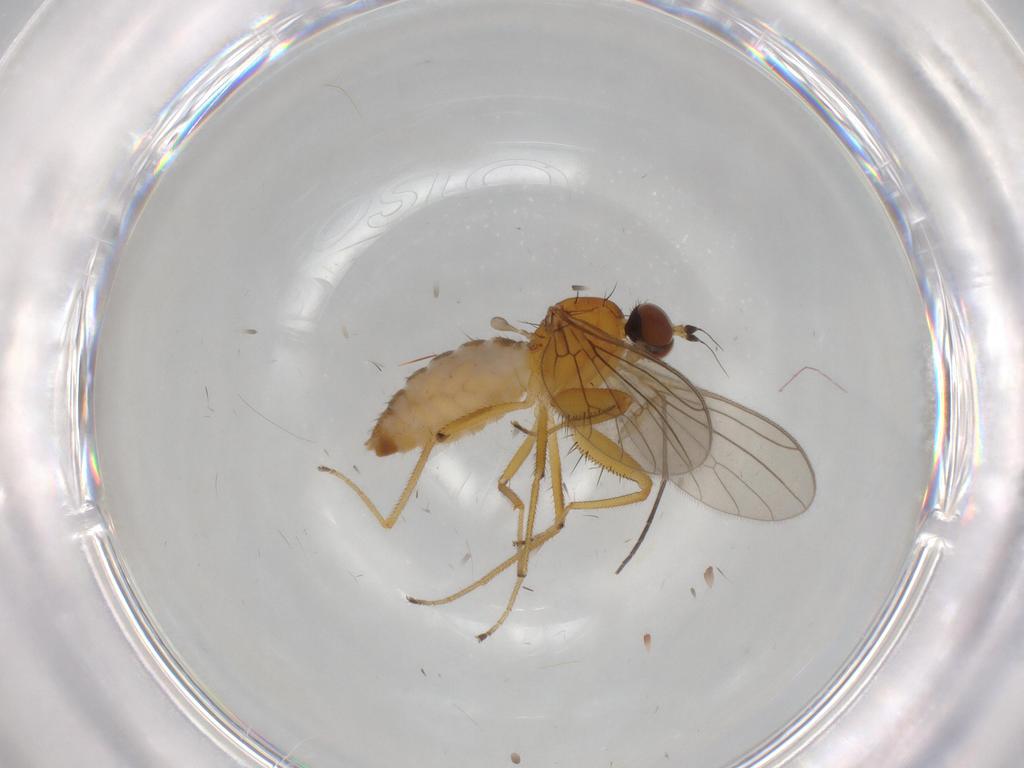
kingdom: Animalia
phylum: Arthropoda
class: Insecta
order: Diptera
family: Empididae
